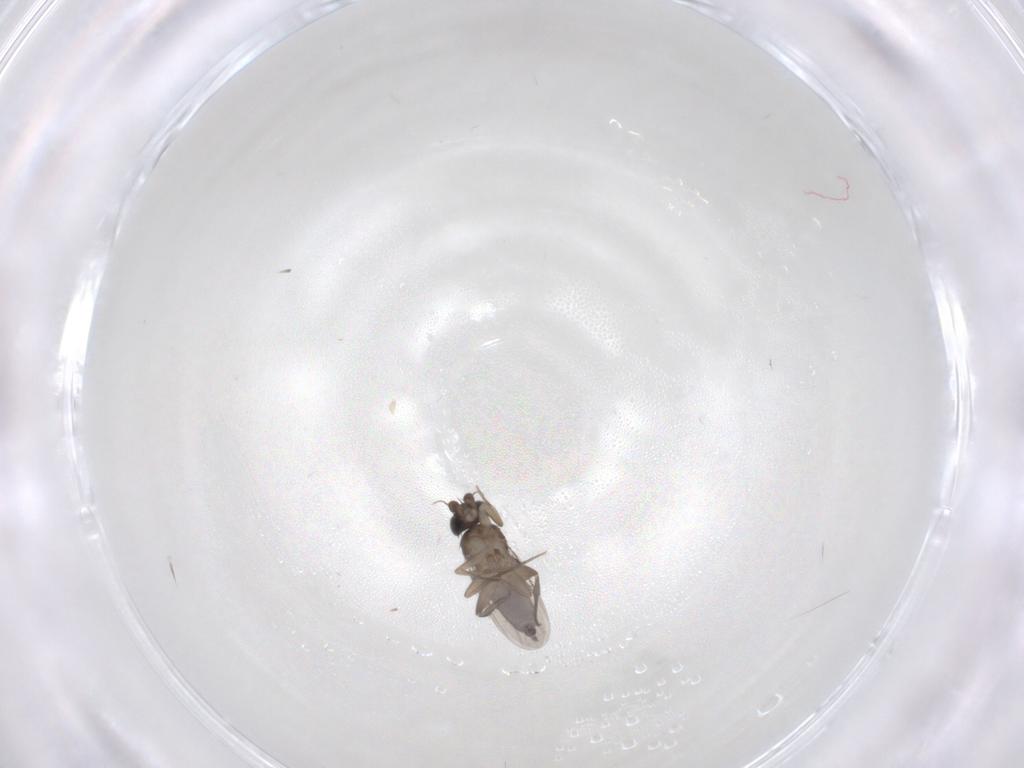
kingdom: Animalia
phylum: Arthropoda
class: Insecta
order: Diptera
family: Phoridae
